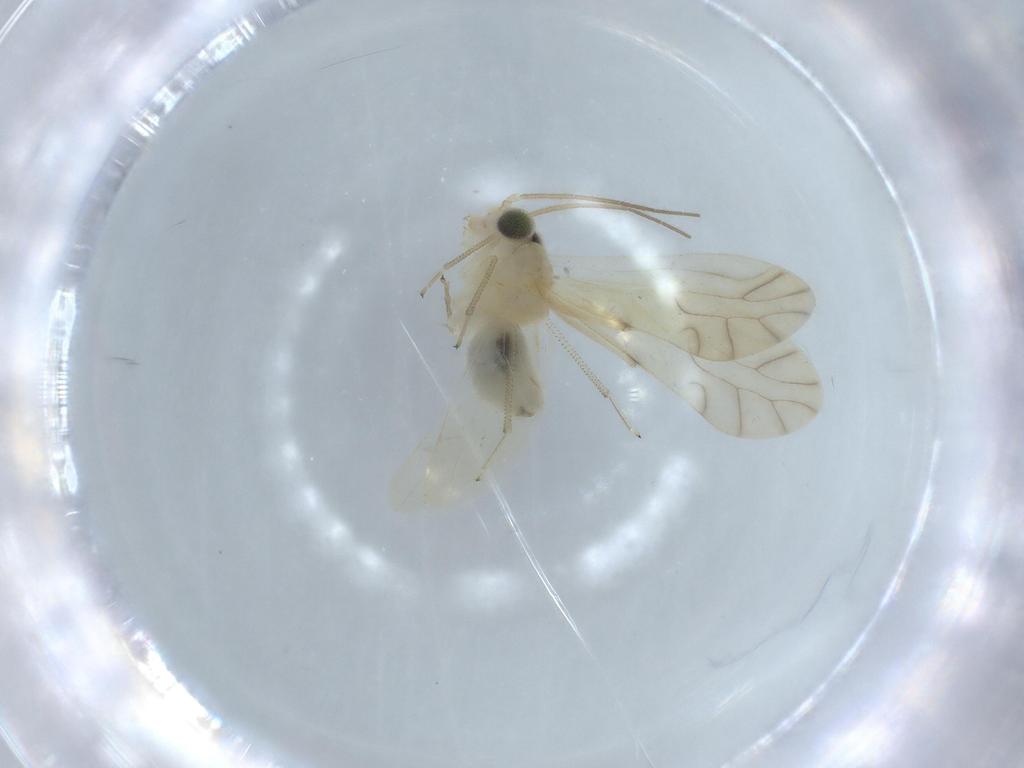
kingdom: Animalia
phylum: Arthropoda
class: Insecta
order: Psocodea
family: Caeciliusidae
